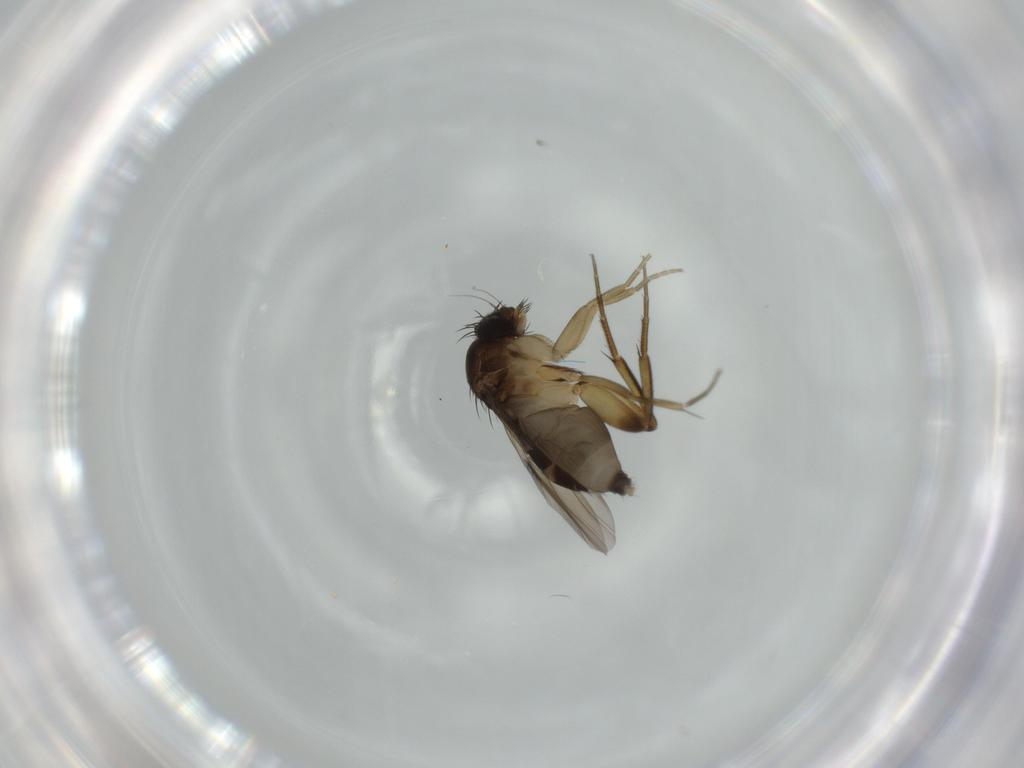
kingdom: Animalia
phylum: Arthropoda
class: Insecta
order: Diptera
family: Phoridae
